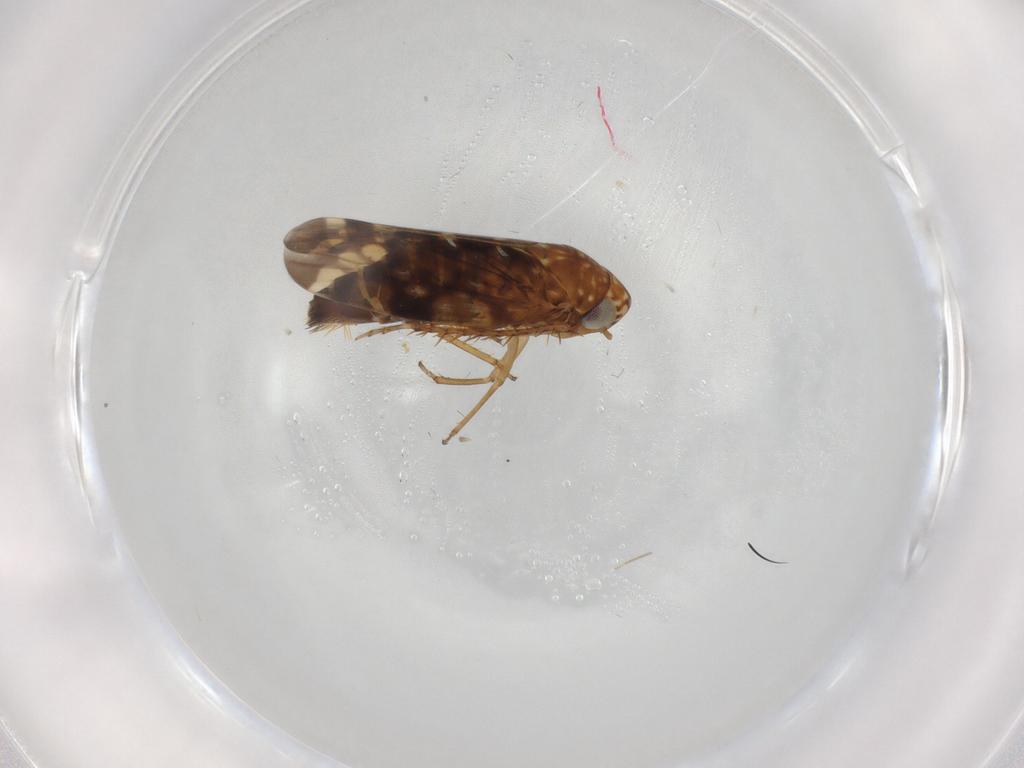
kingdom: Animalia
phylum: Arthropoda
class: Insecta
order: Hemiptera
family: Cicadellidae
